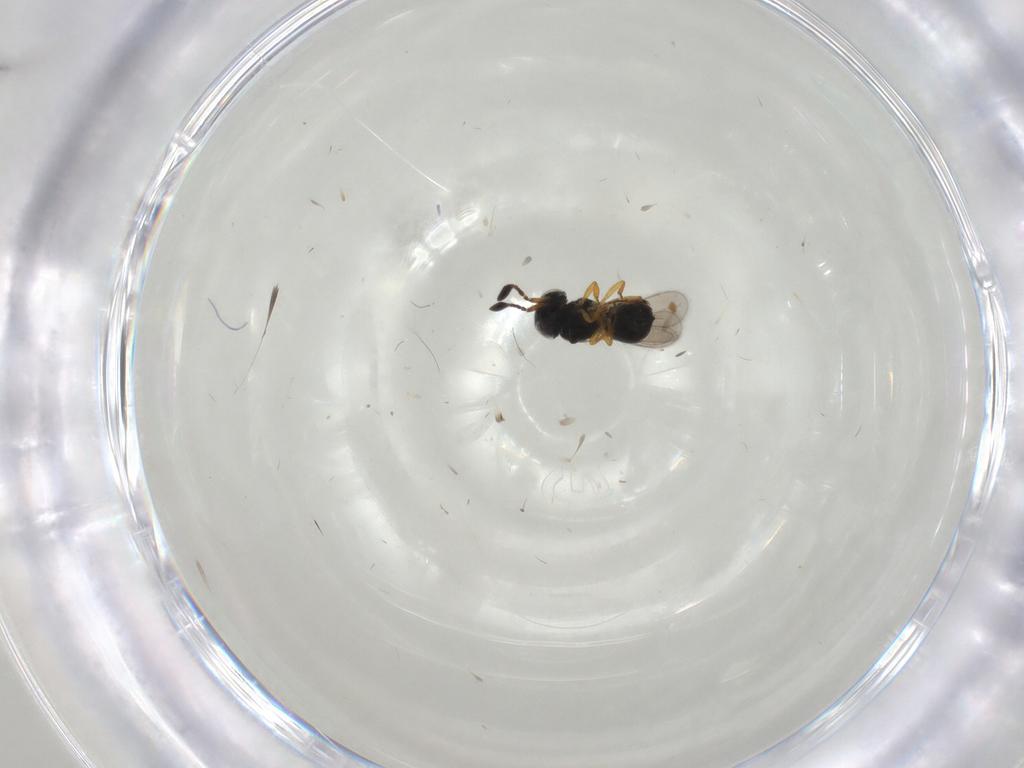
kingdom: Animalia
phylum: Arthropoda
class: Insecta
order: Hymenoptera
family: Scelionidae
